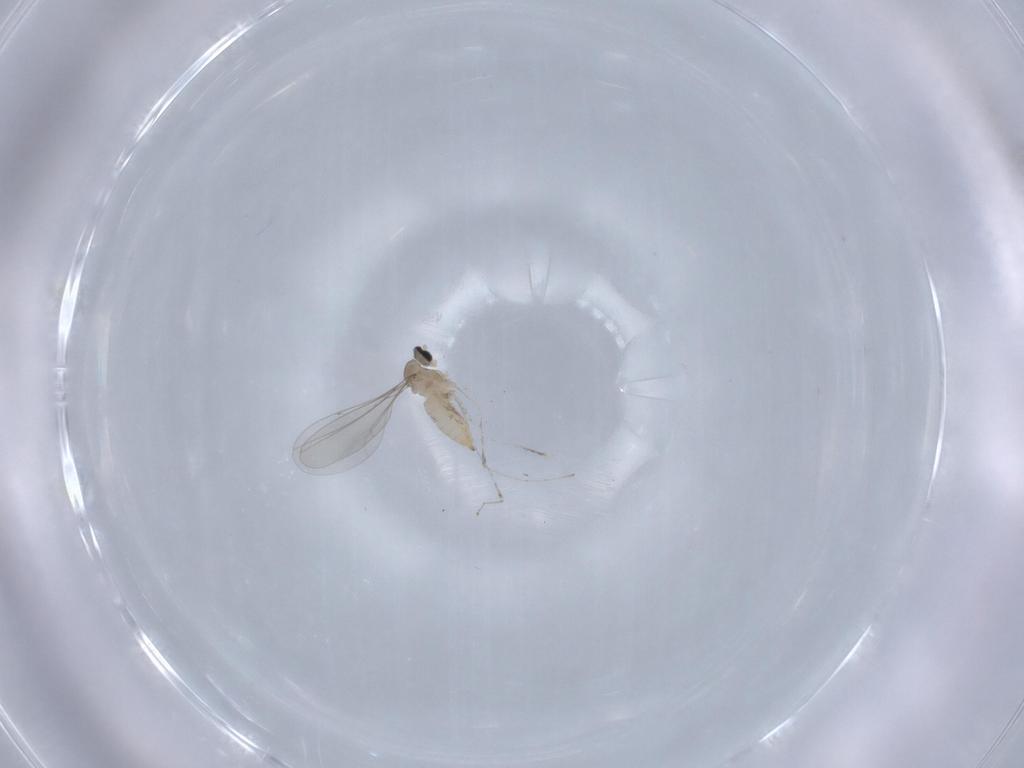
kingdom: Animalia
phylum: Arthropoda
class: Insecta
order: Diptera
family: Cecidomyiidae
